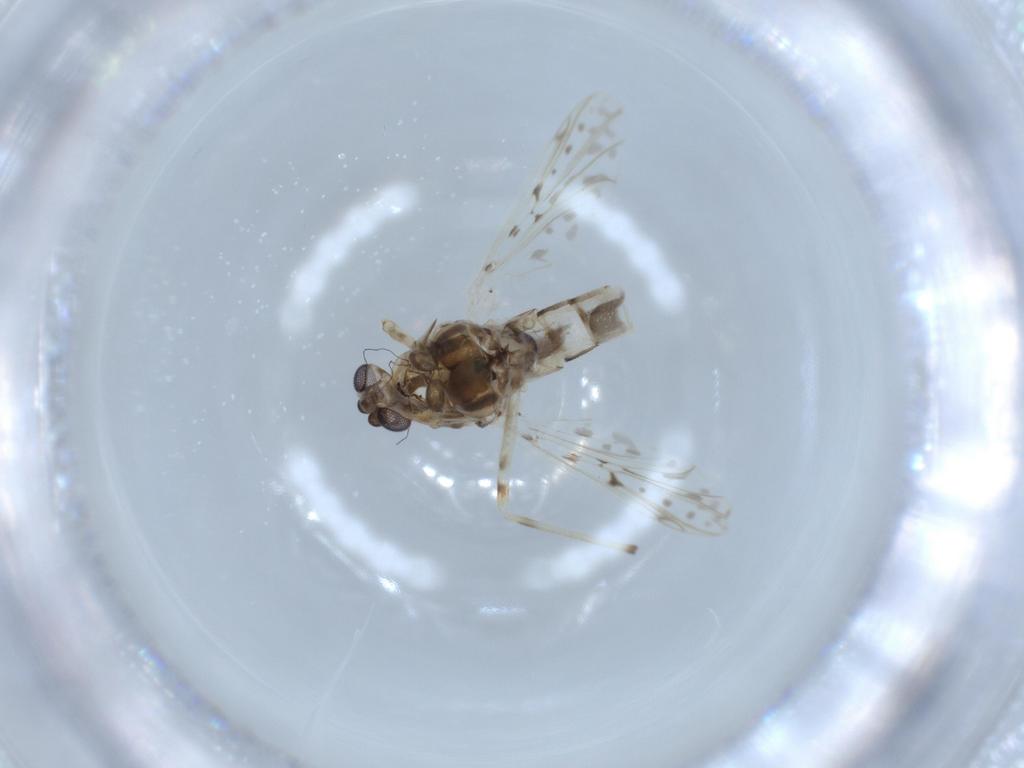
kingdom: Animalia
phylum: Arthropoda
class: Insecta
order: Diptera
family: Chironomidae
